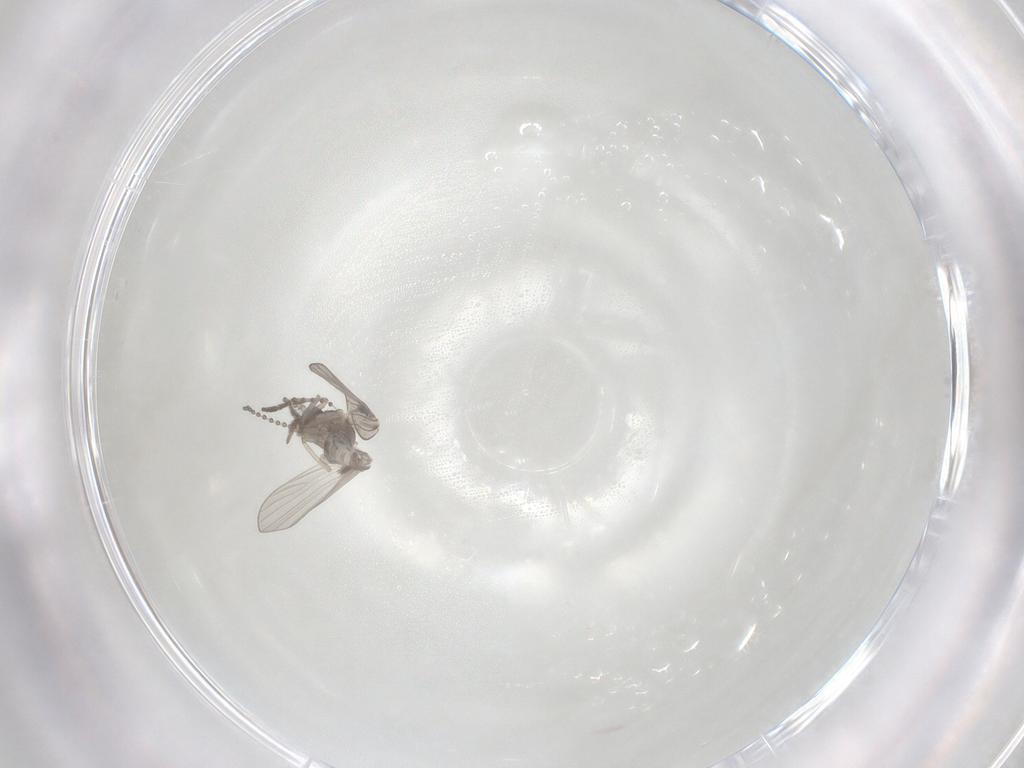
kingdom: Animalia
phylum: Arthropoda
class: Insecta
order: Diptera
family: Psychodidae
